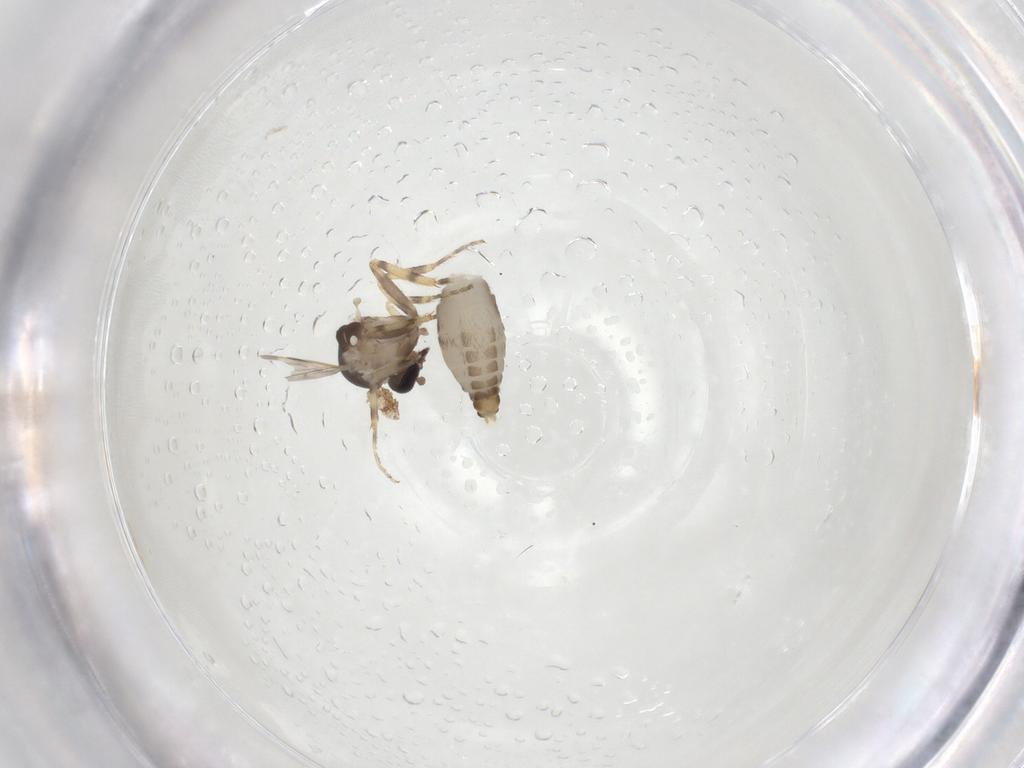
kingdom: Animalia
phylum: Arthropoda
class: Insecta
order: Diptera
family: Ceratopogonidae
